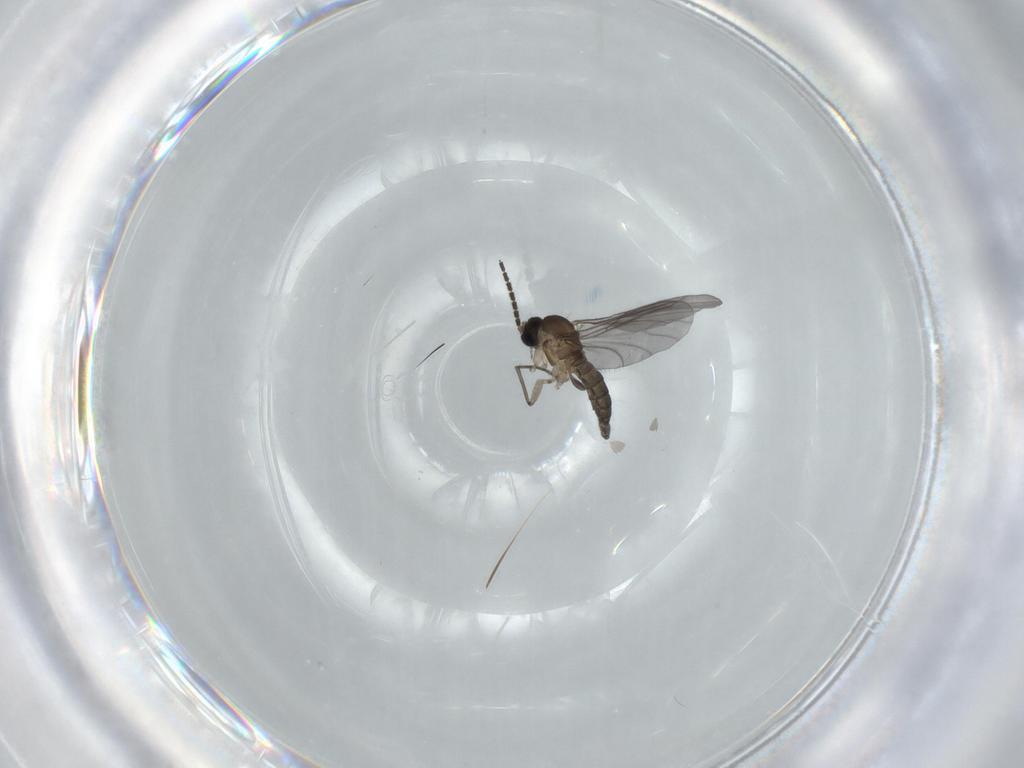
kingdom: Animalia
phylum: Arthropoda
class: Insecta
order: Diptera
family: Sciaridae
